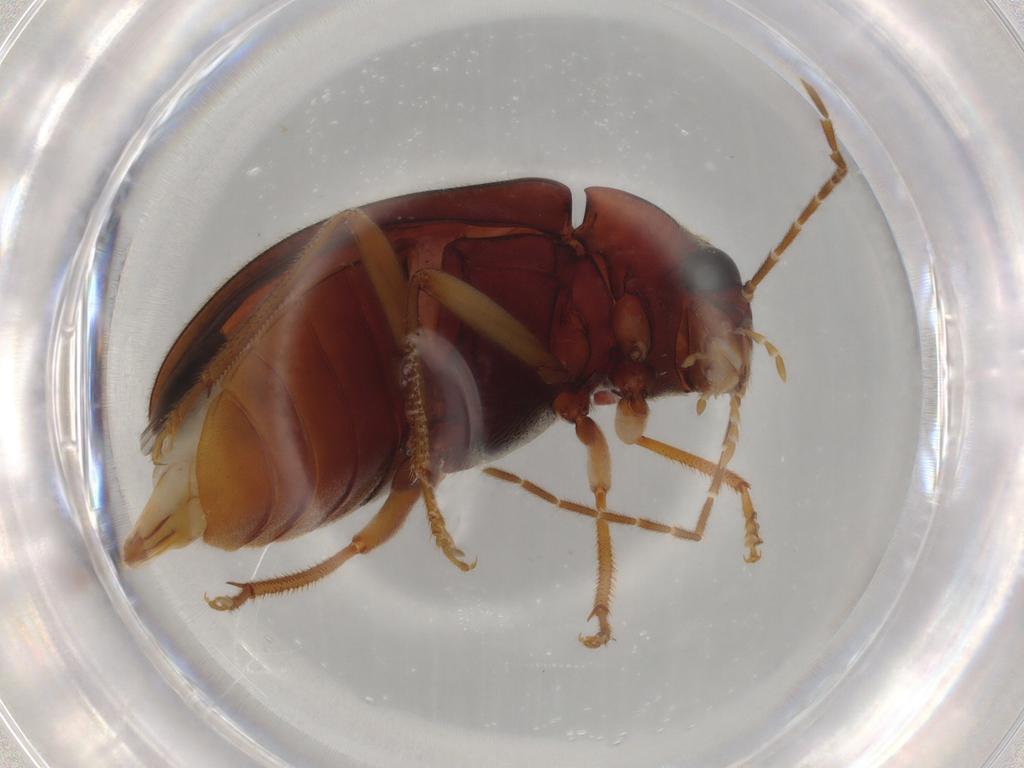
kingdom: Animalia
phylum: Arthropoda
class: Insecta
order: Coleoptera
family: Ptilodactylidae
